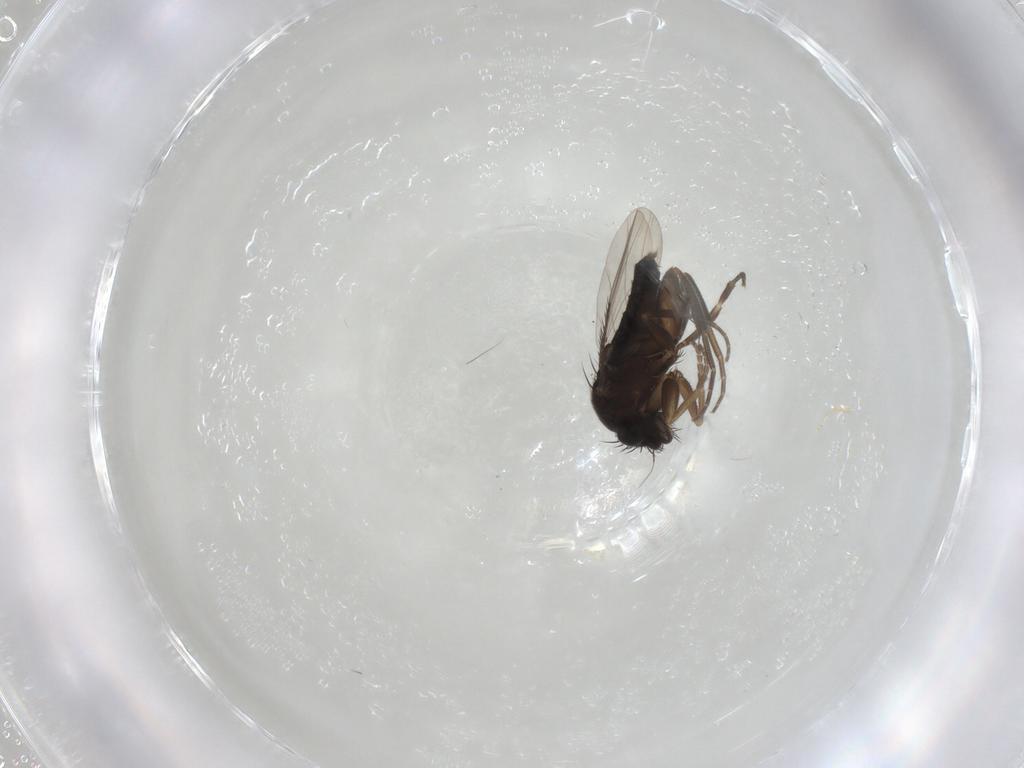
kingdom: Animalia
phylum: Arthropoda
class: Insecta
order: Diptera
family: Phoridae
